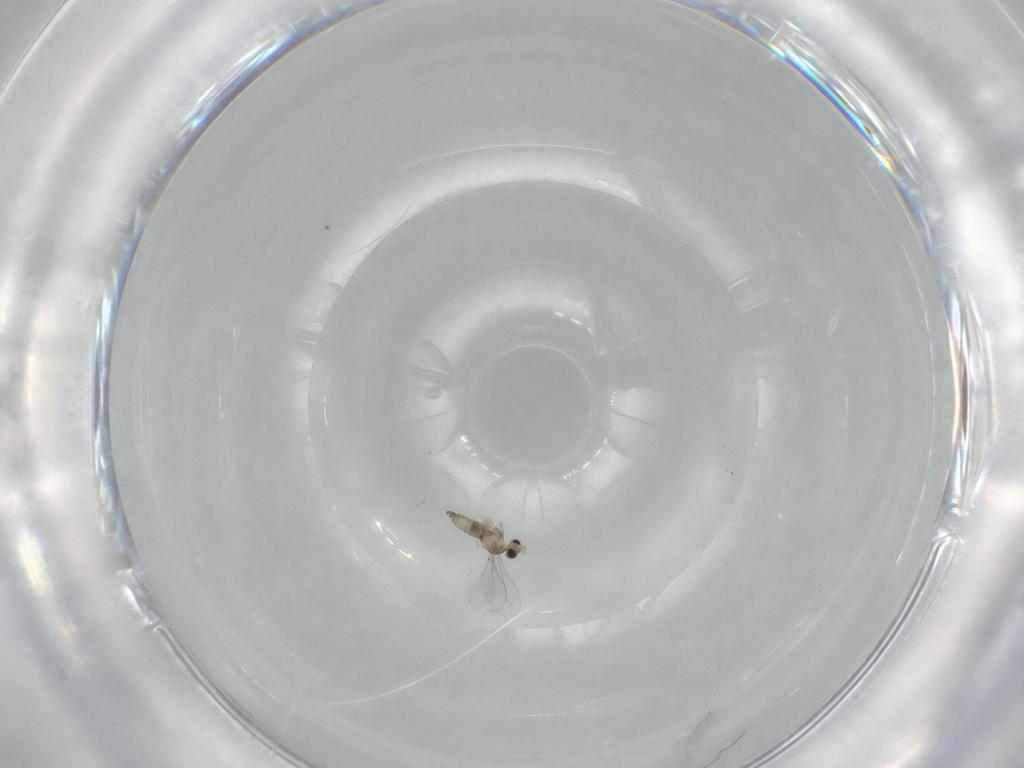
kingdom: Animalia
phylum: Arthropoda
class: Insecta
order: Diptera
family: Cecidomyiidae
